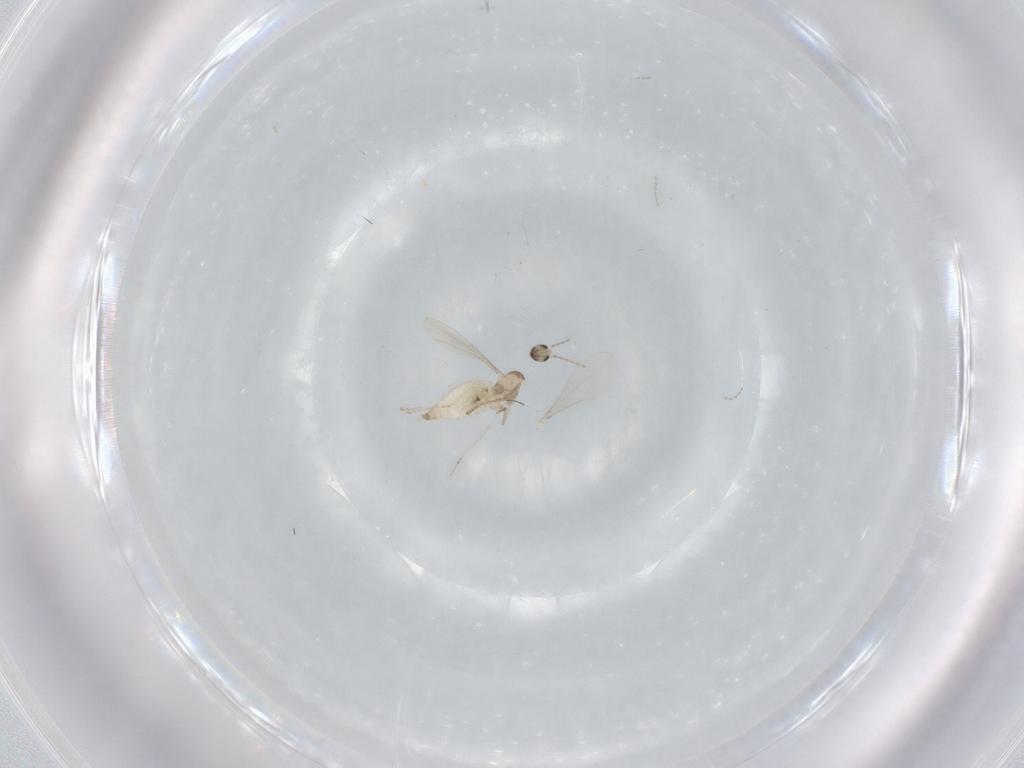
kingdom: Animalia
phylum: Arthropoda
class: Insecta
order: Diptera
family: Cecidomyiidae
